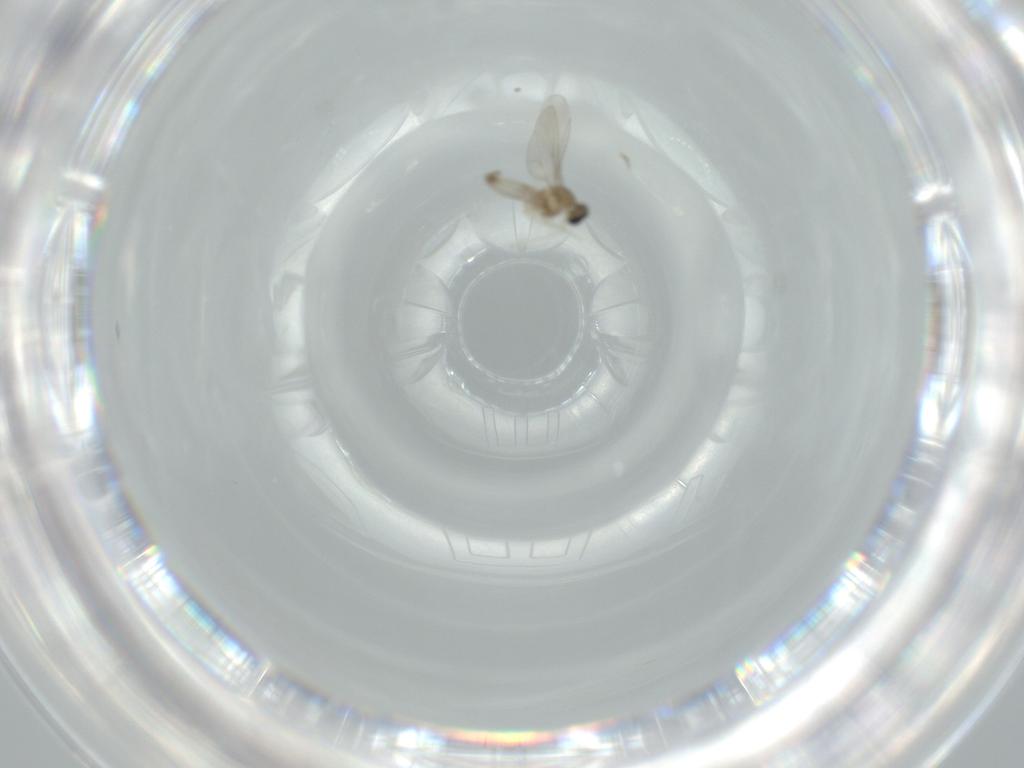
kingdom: Animalia
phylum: Arthropoda
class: Insecta
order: Diptera
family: Cecidomyiidae
